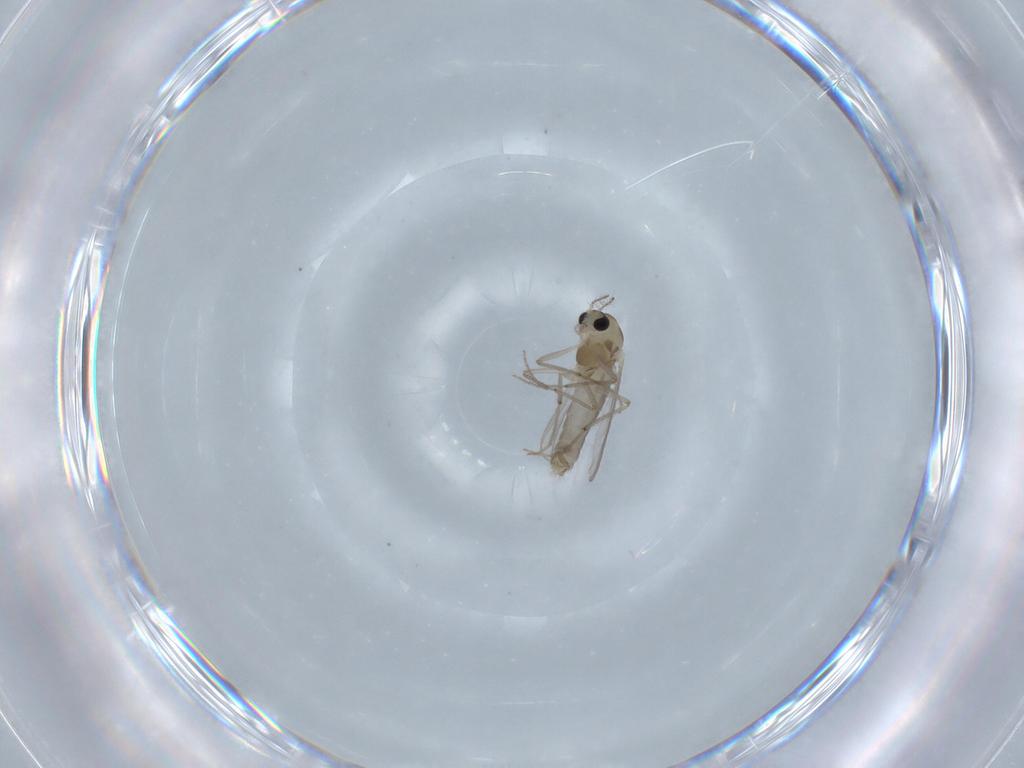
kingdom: Animalia
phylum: Arthropoda
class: Insecta
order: Diptera
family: Chironomidae
